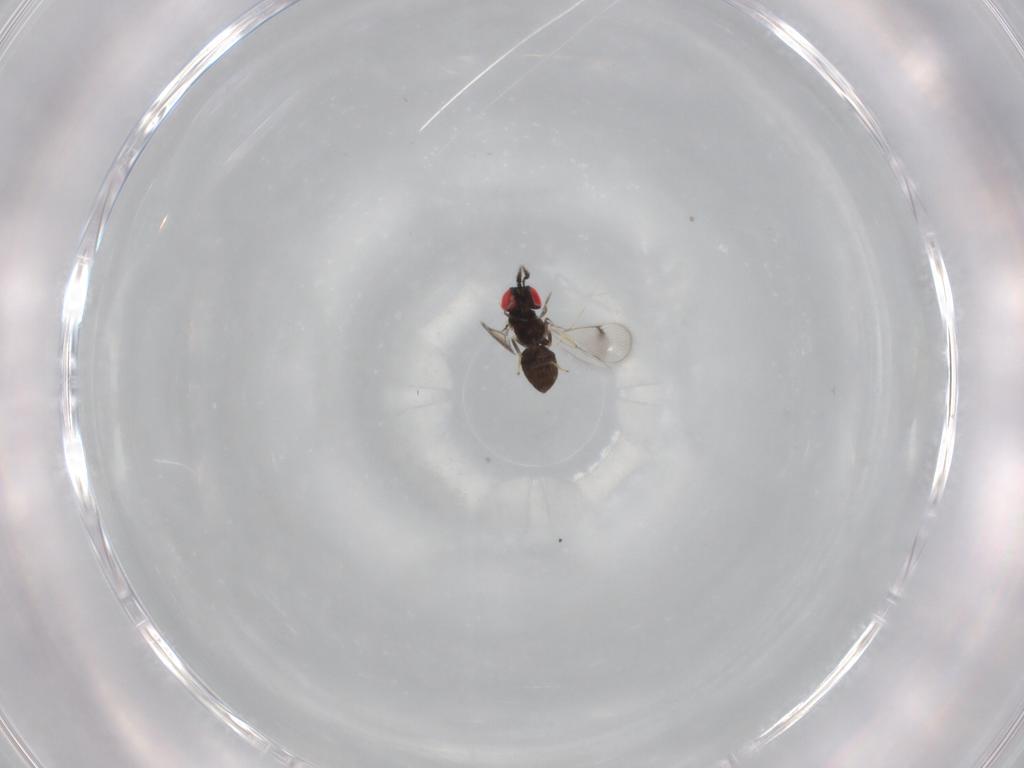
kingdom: Animalia
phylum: Arthropoda
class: Insecta
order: Hymenoptera
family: Eulophidae
